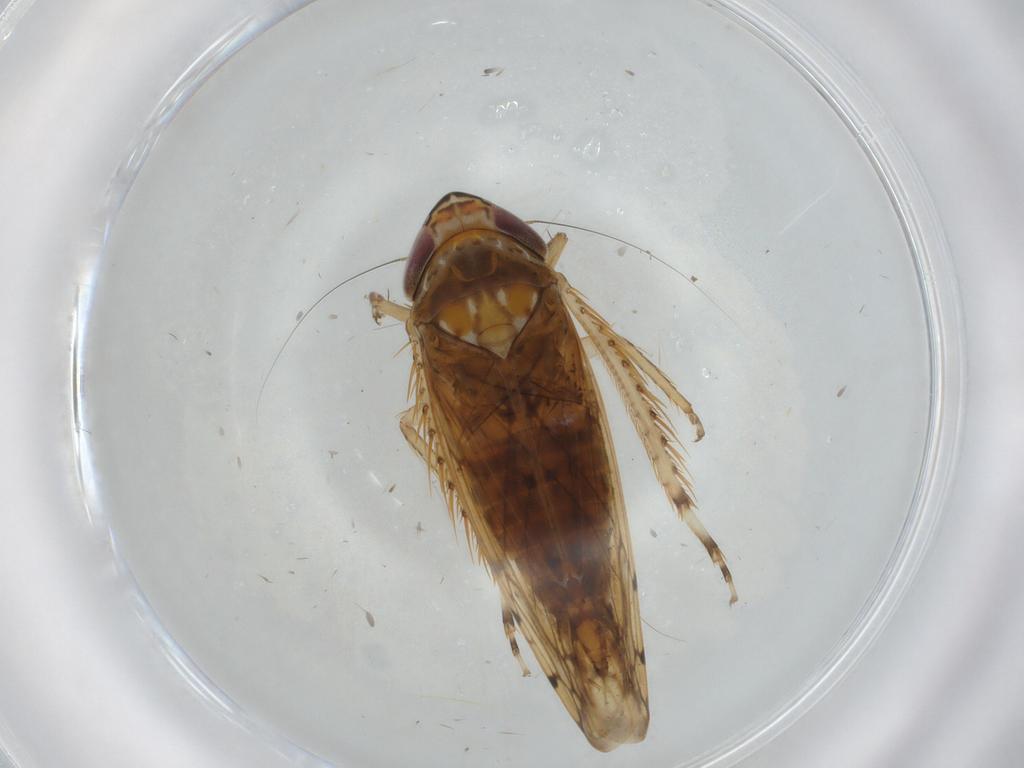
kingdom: Animalia
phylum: Arthropoda
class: Insecta
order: Hemiptera
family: Cicadellidae
